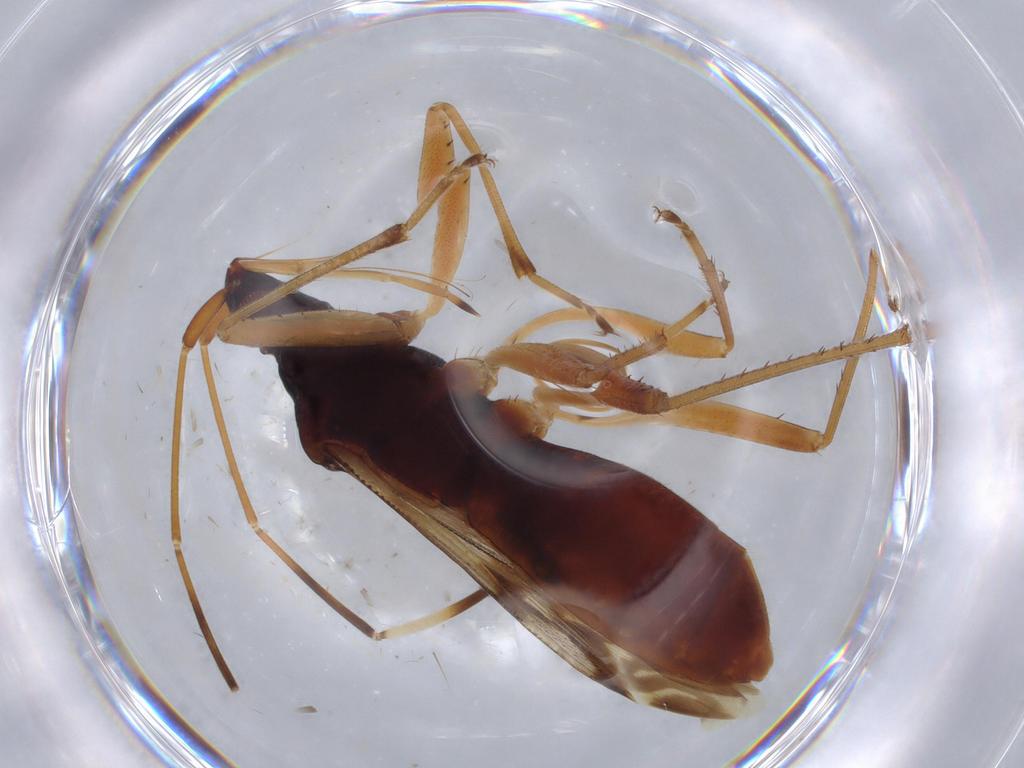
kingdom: Animalia
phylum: Arthropoda
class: Insecta
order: Hemiptera
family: Rhyparochromidae
